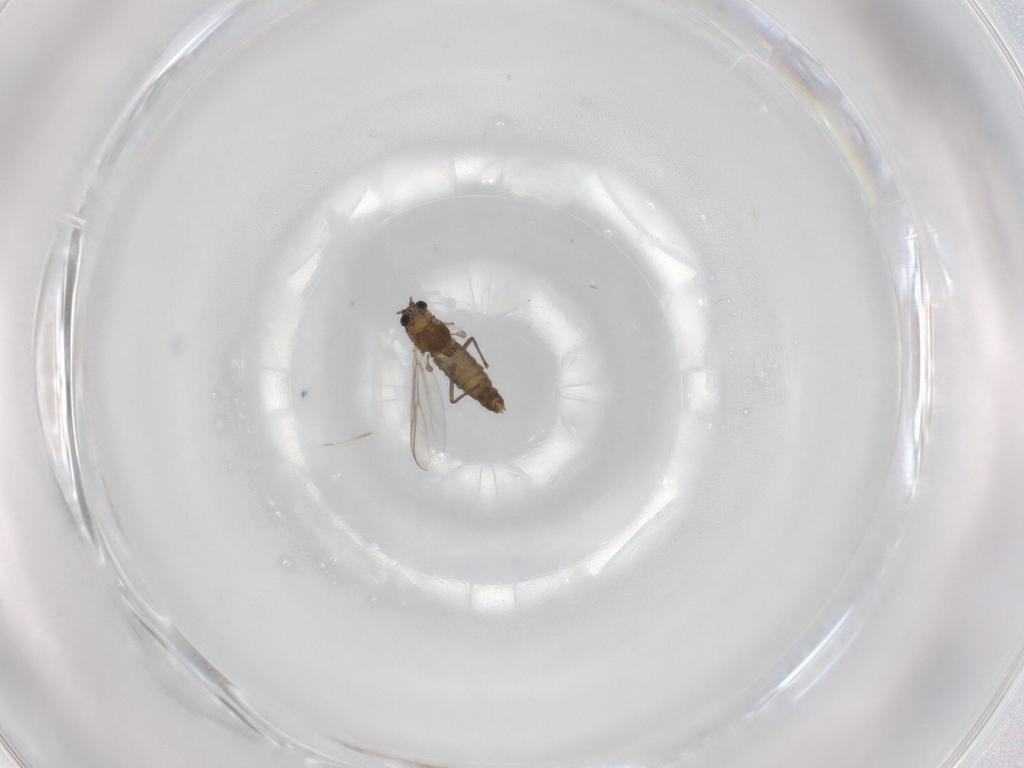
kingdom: Animalia
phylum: Arthropoda
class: Insecta
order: Diptera
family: Chironomidae
